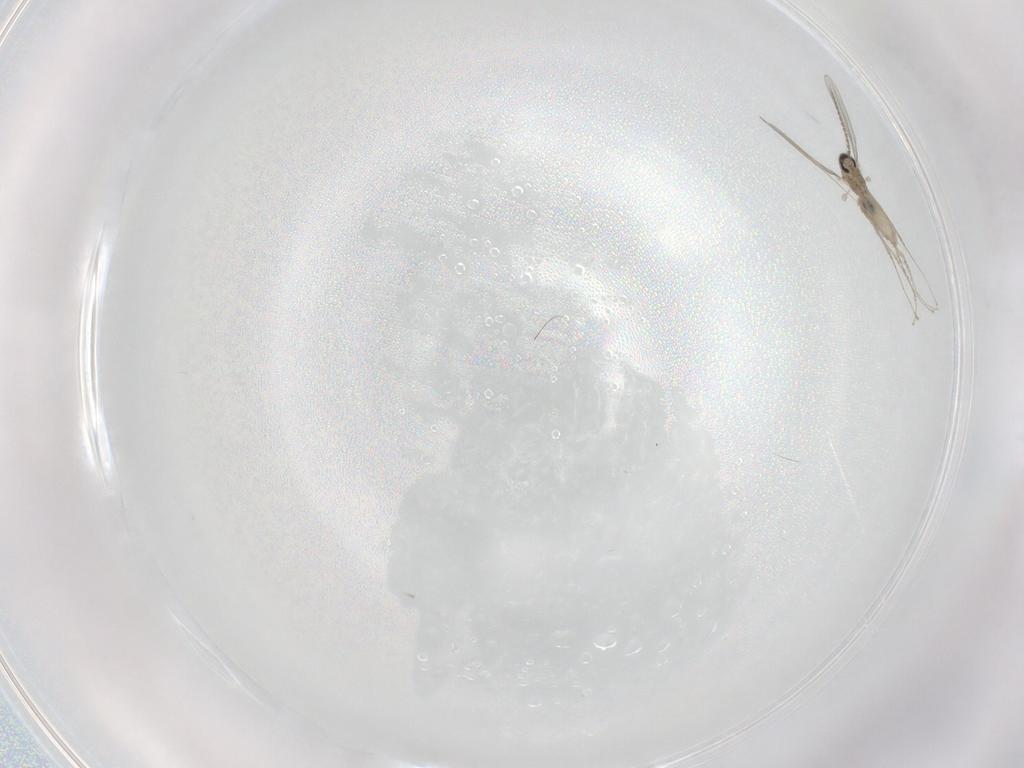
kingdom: Animalia
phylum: Arthropoda
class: Insecta
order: Diptera
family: Cecidomyiidae
